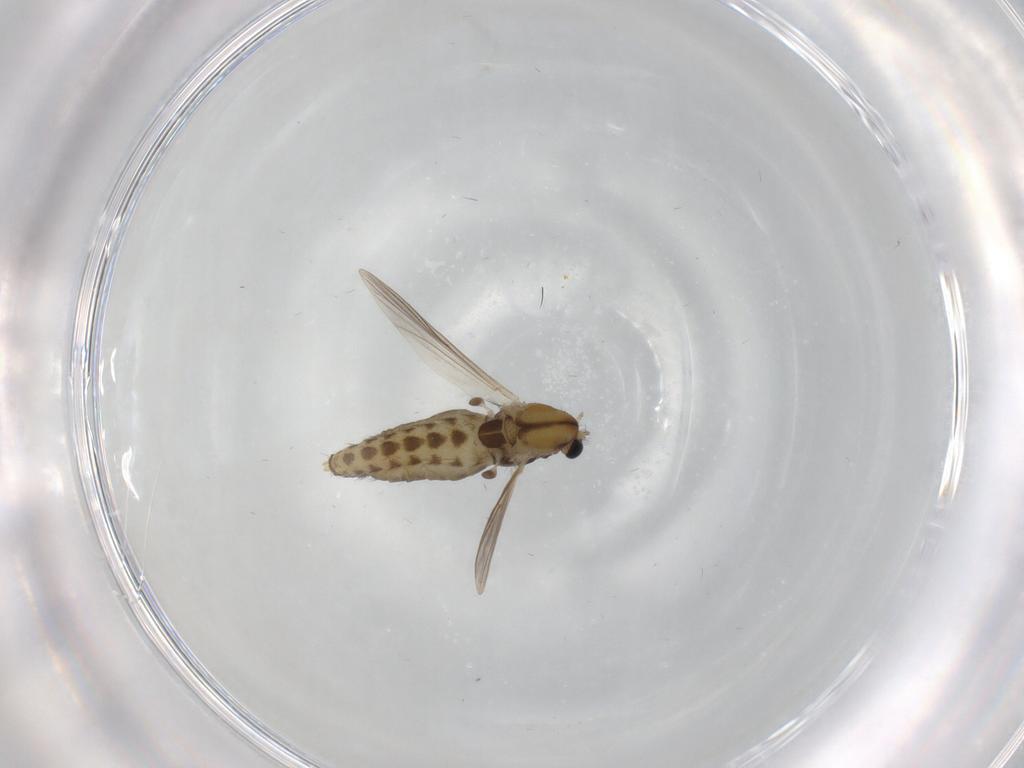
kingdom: Animalia
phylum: Arthropoda
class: Insecta
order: Diptera
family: Chironomidae
